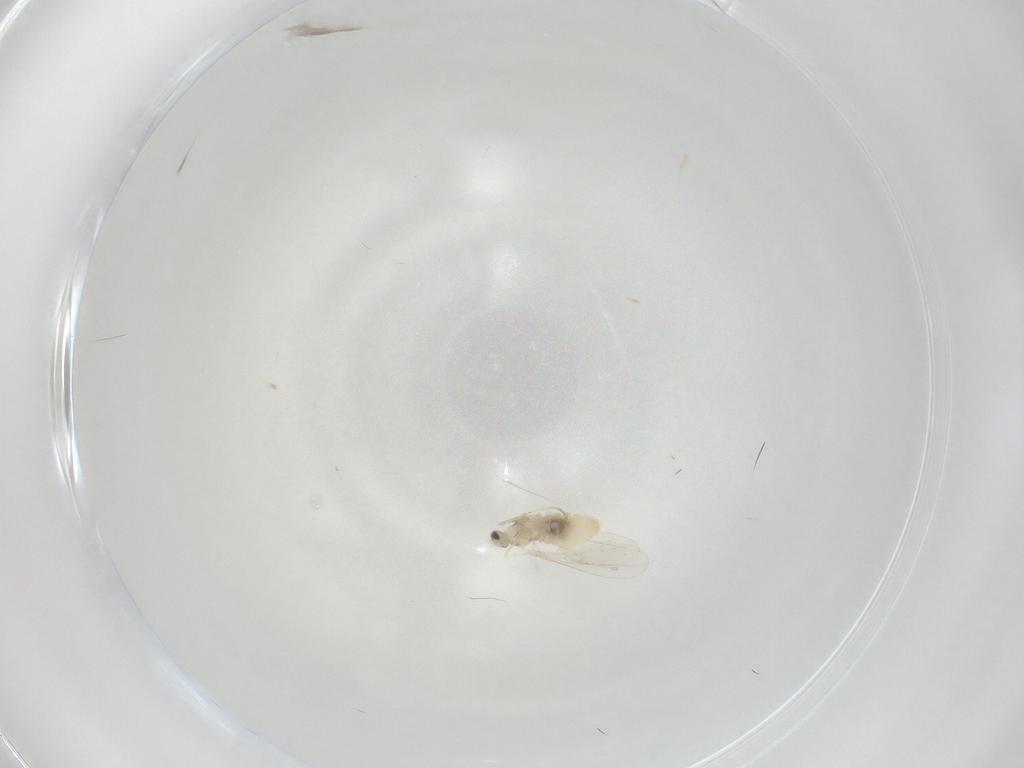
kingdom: Animalia
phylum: Arthropoda
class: Insecta
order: Diptera
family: Cecidomyiidae
